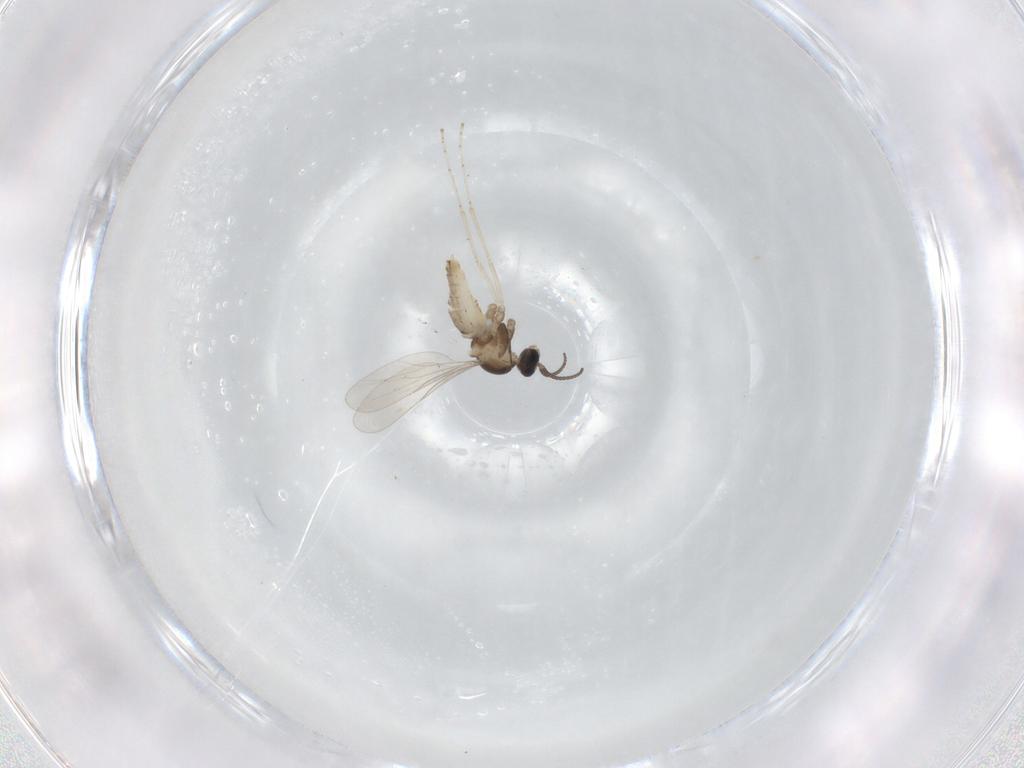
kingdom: Animalia
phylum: Arthropoda
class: Insecta
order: Diptera
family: Cecidomyiidae
